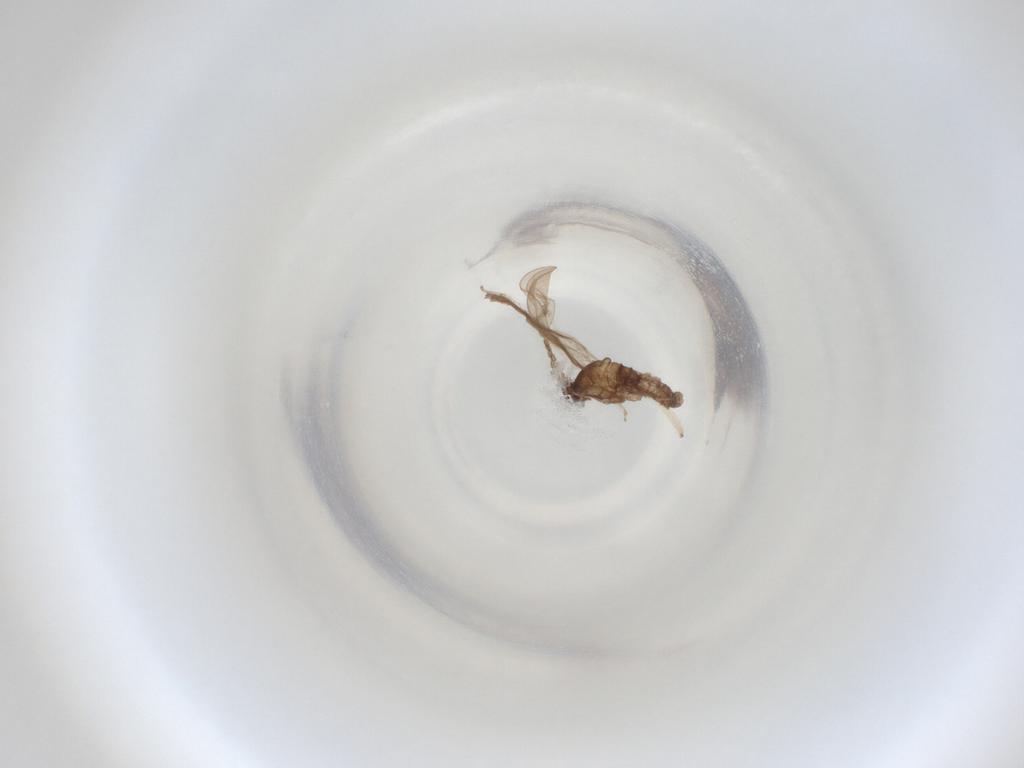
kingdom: Animalia
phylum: Arthropoda
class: Insecta
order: Diptera
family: Cecidomyiidae
